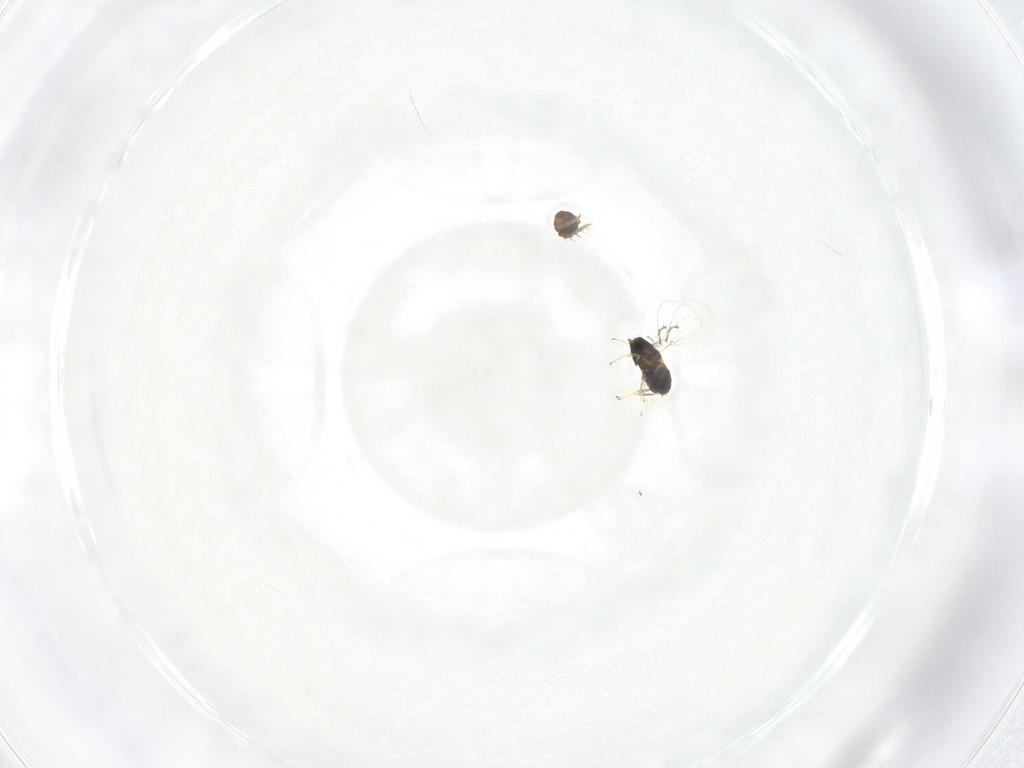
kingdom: Animalia
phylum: Arthropoda
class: Insecta
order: Hymenoptera
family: Trichogrammatidae
